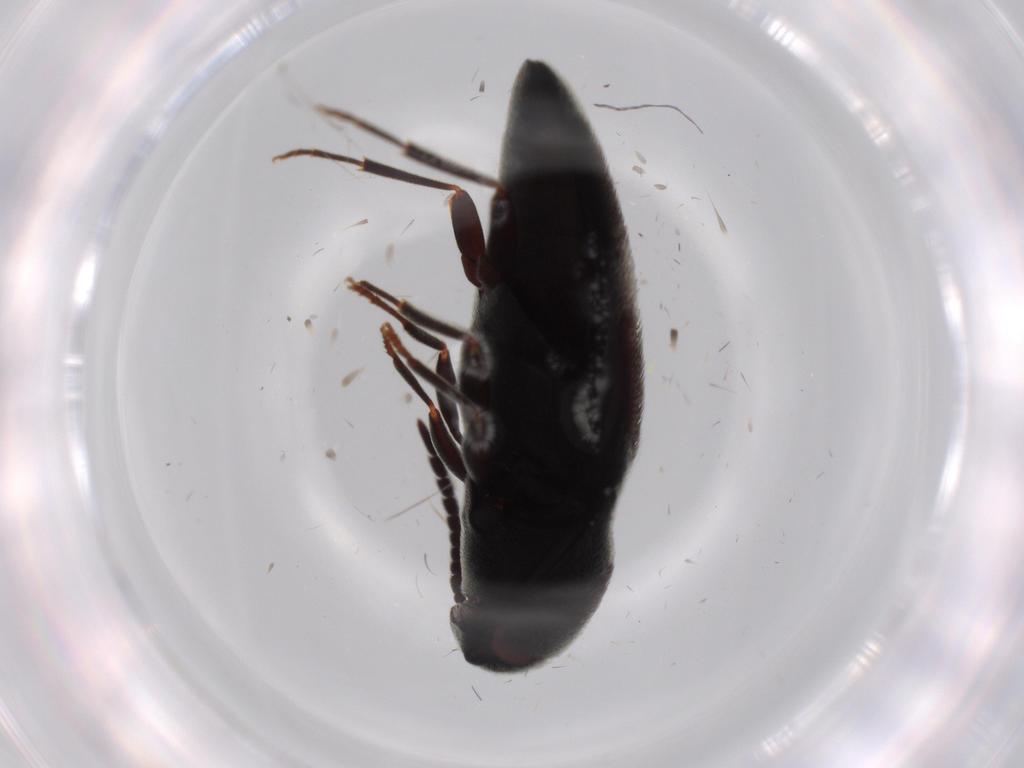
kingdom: Animalia
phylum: Arthropoda
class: Insecta
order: Coleoptera
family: Eucnemidae
